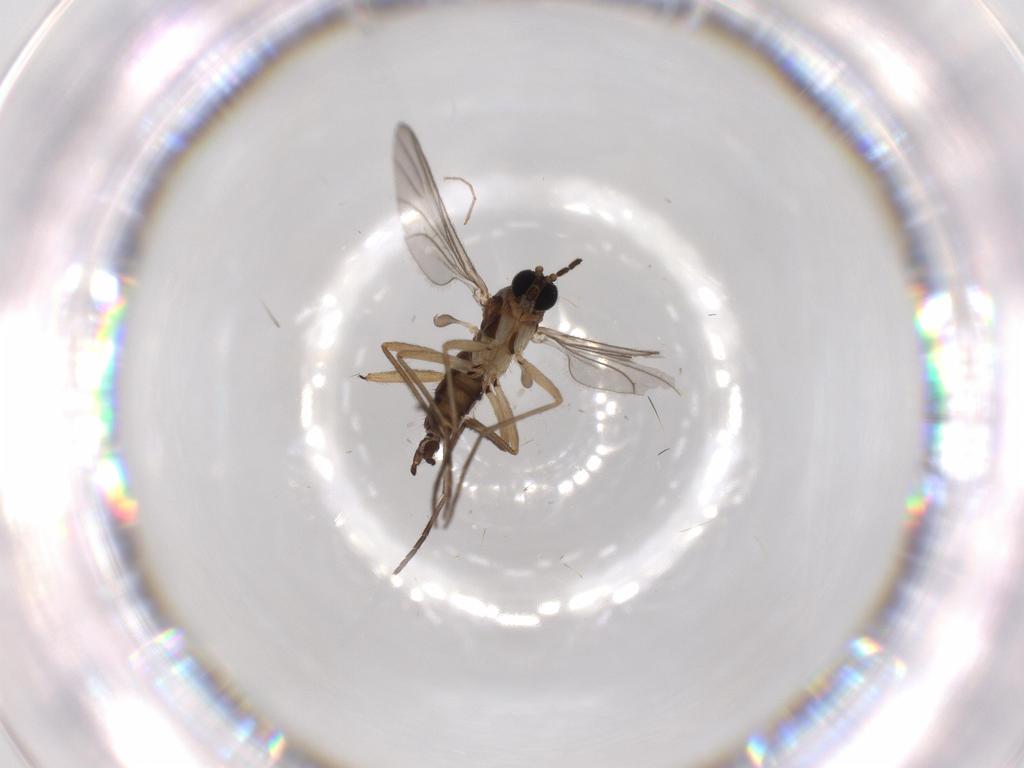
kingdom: Animalia
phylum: Arthropoda
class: Insecta
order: Diptera
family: Sciaridae
